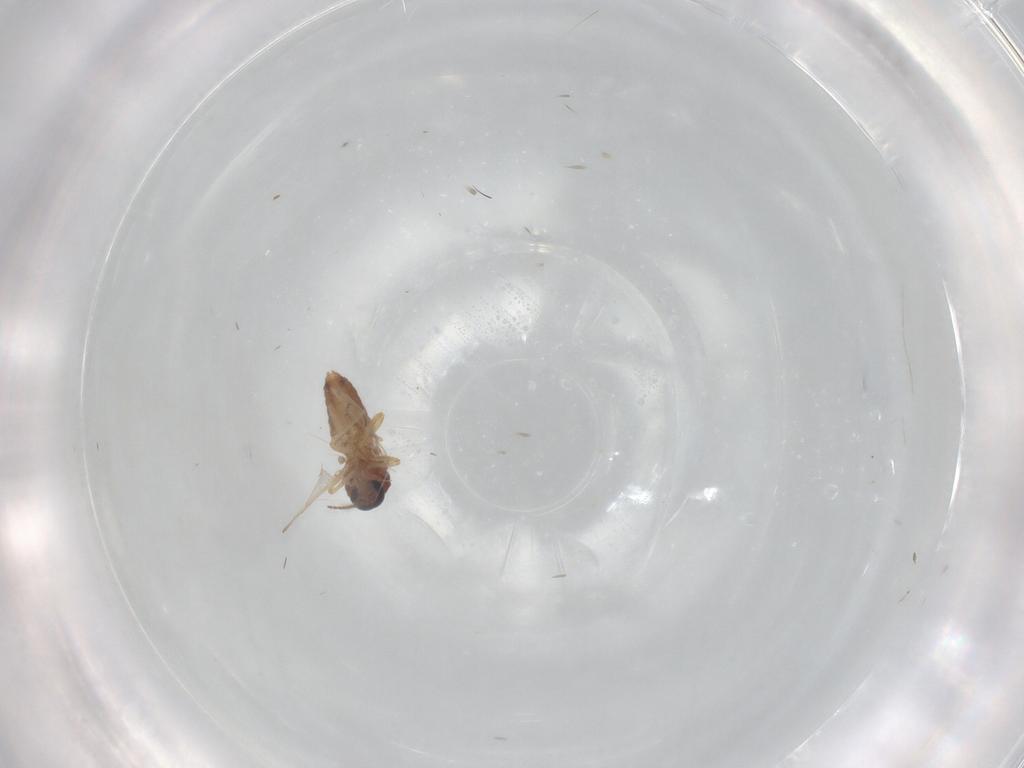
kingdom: Animalia
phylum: Arthropoda
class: Insecta
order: Diptera
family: Chironomidae
